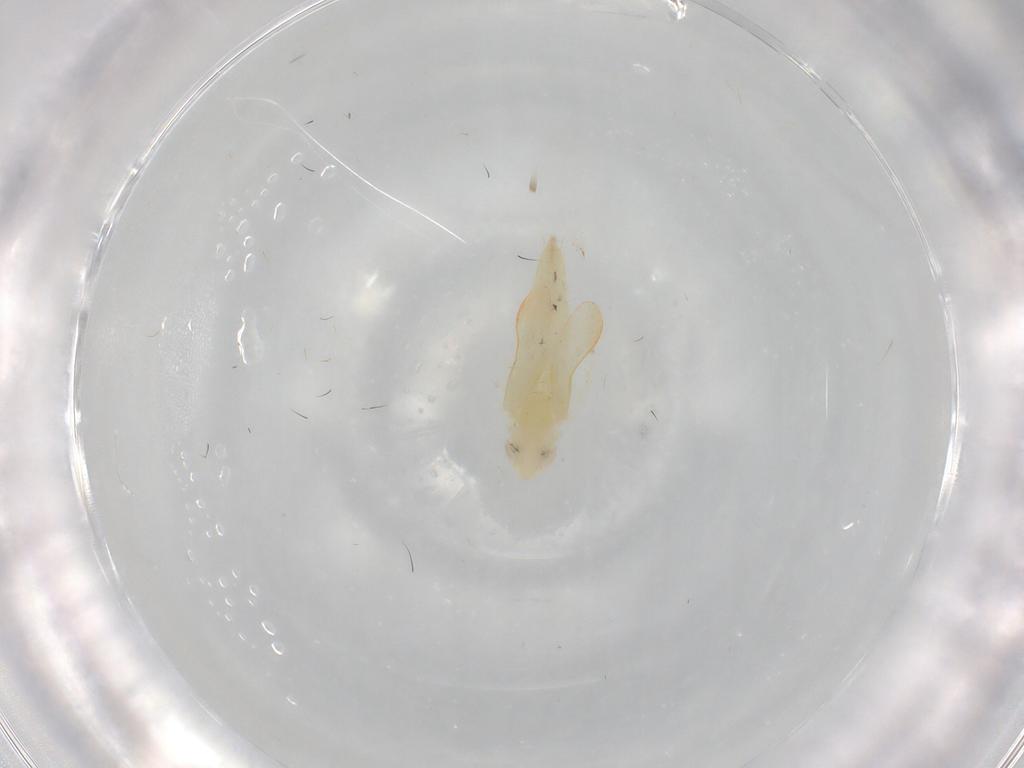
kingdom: Animalia
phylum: Arthropoda
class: Insecta
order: Hemiptera
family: Cicadellidae
